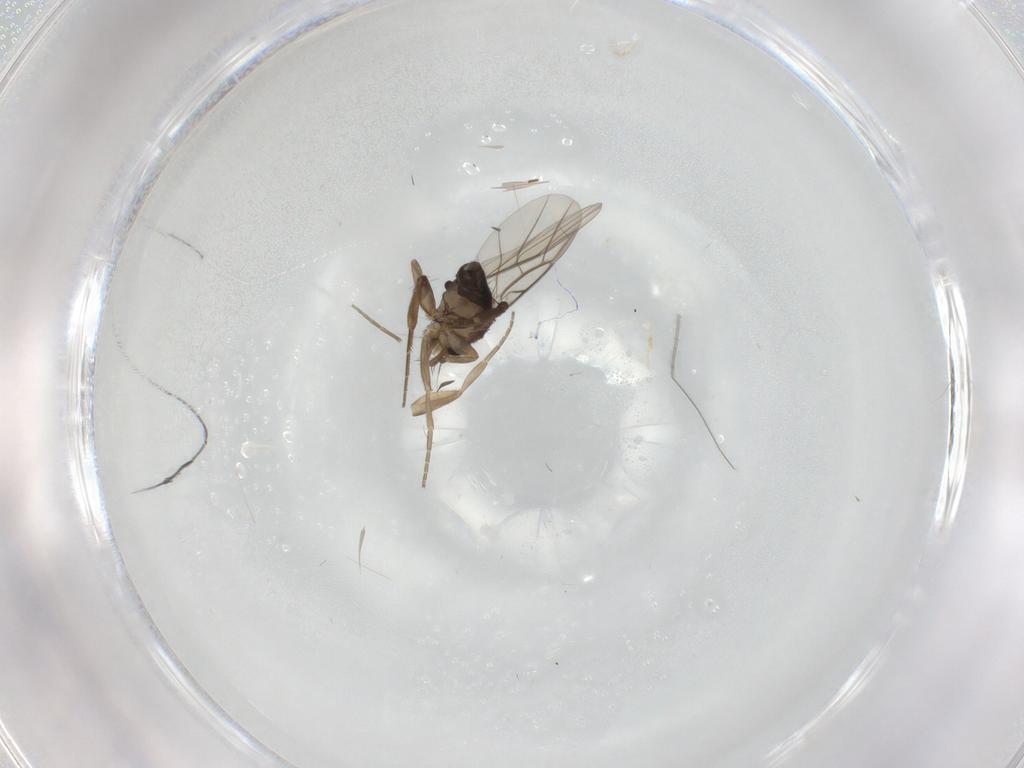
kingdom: Animalia
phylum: Arthropoda
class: Insecta
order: Diptera
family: Phoridae
